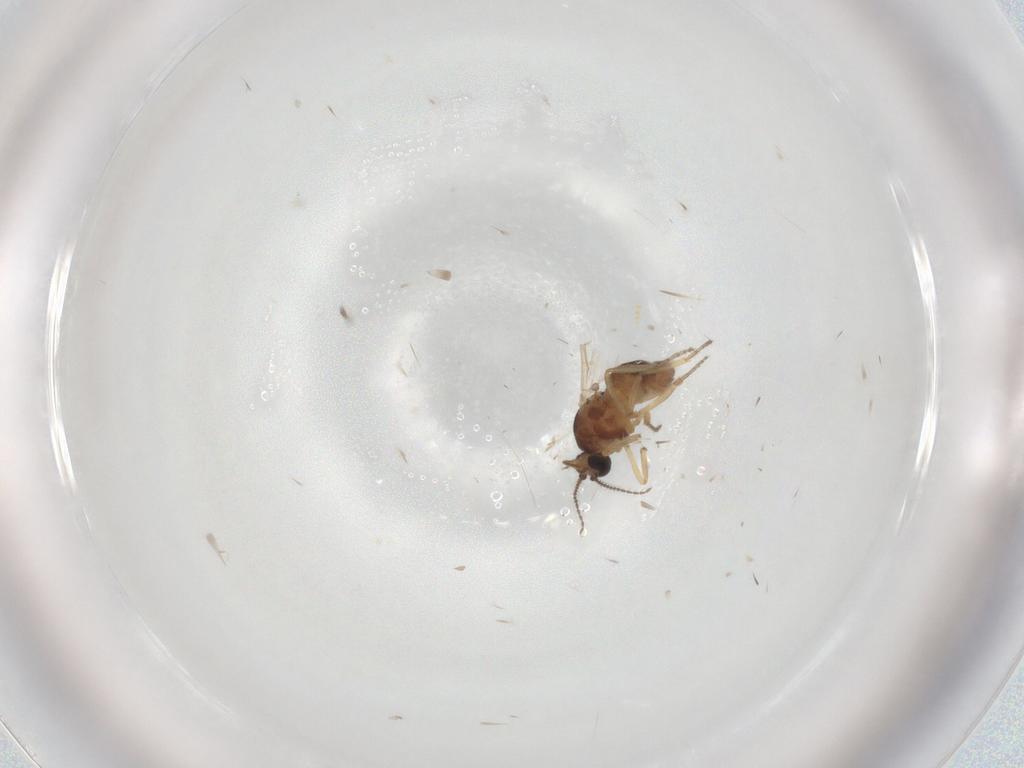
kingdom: Animalia
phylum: Arthropoda
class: Insecta
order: Diptera
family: Ceratopogonidae
